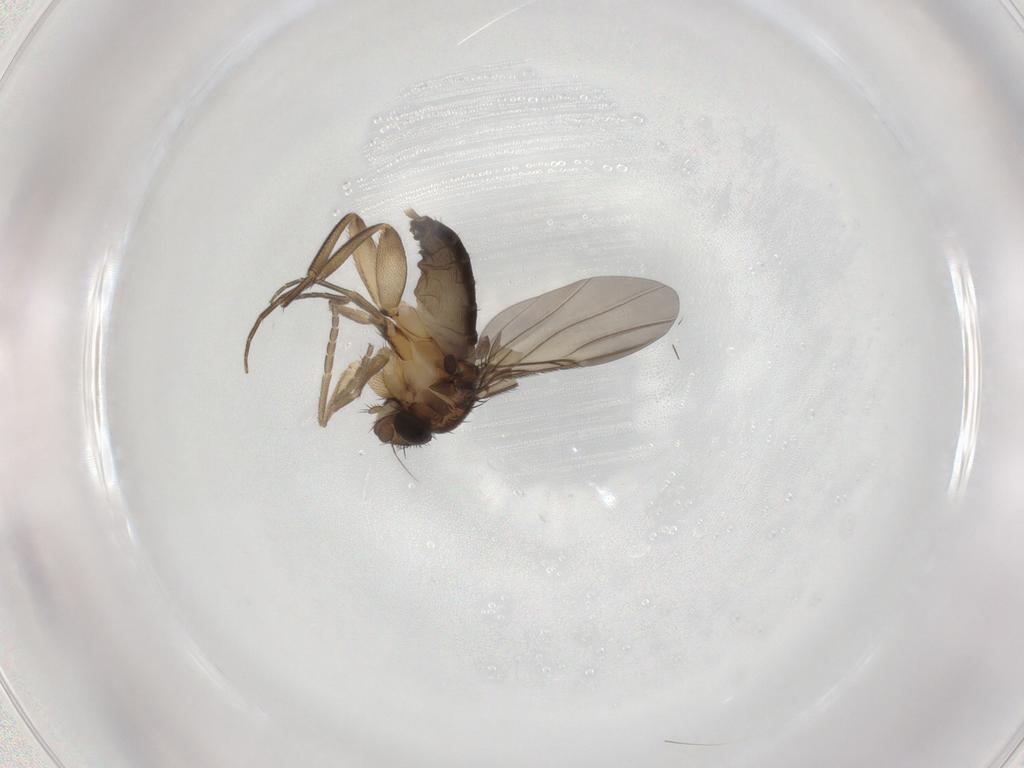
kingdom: Animalia
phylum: Arthropoda
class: Insecta
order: Diptera
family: Phoridae
